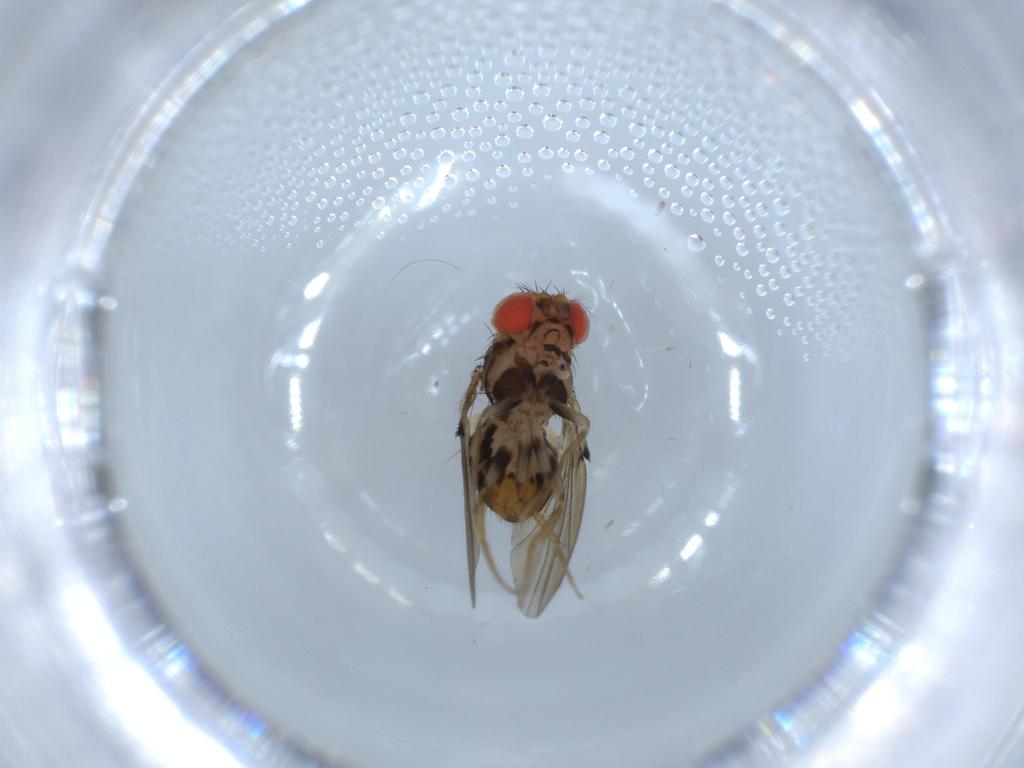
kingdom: Animalia
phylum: Arthropoda
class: Insecta
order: Diptera
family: Drosophilidae
